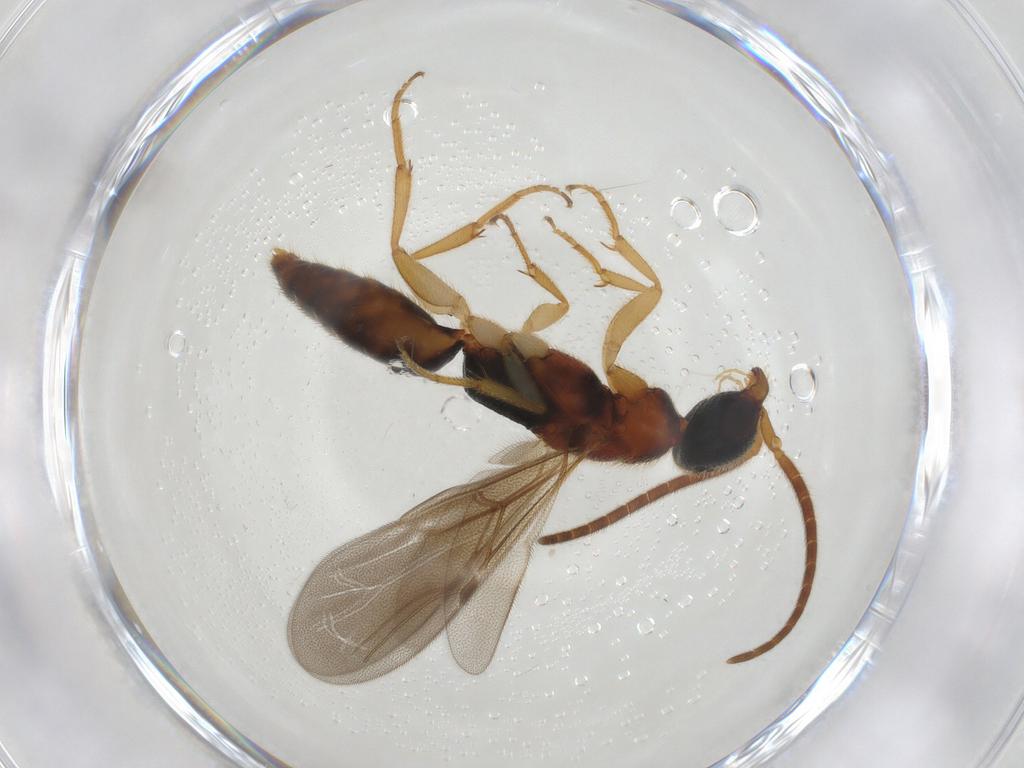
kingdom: Animalia
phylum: Arthropoda
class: Insecta
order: Hymenoptera
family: Bethylidae
